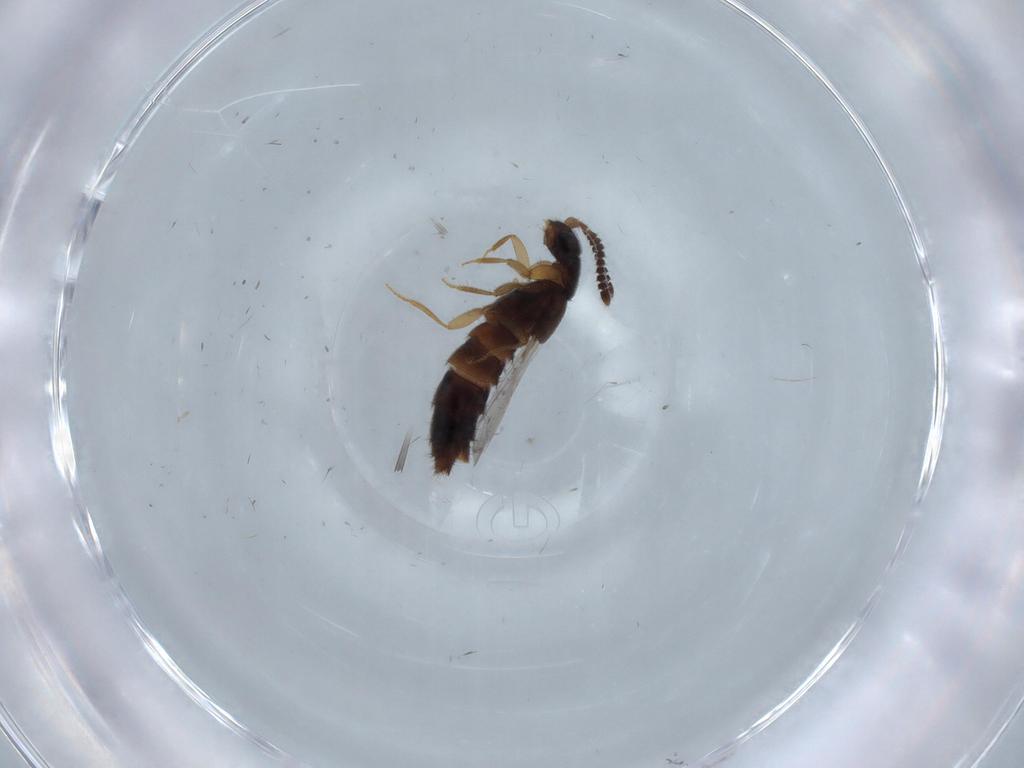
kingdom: Animalia
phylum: Arthropoda
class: Insecta
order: Coleoptera
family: Staphylinidae
